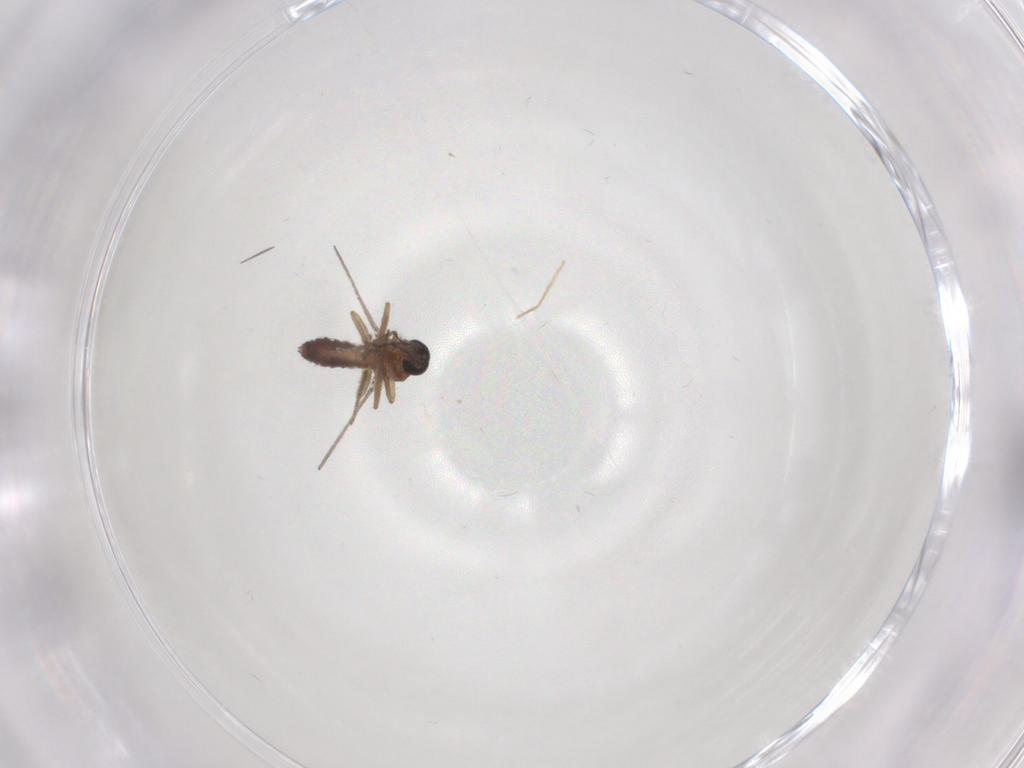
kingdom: Animalia
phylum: Arthropoda
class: Insecta
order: Diptera
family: Ceratopogonidae
